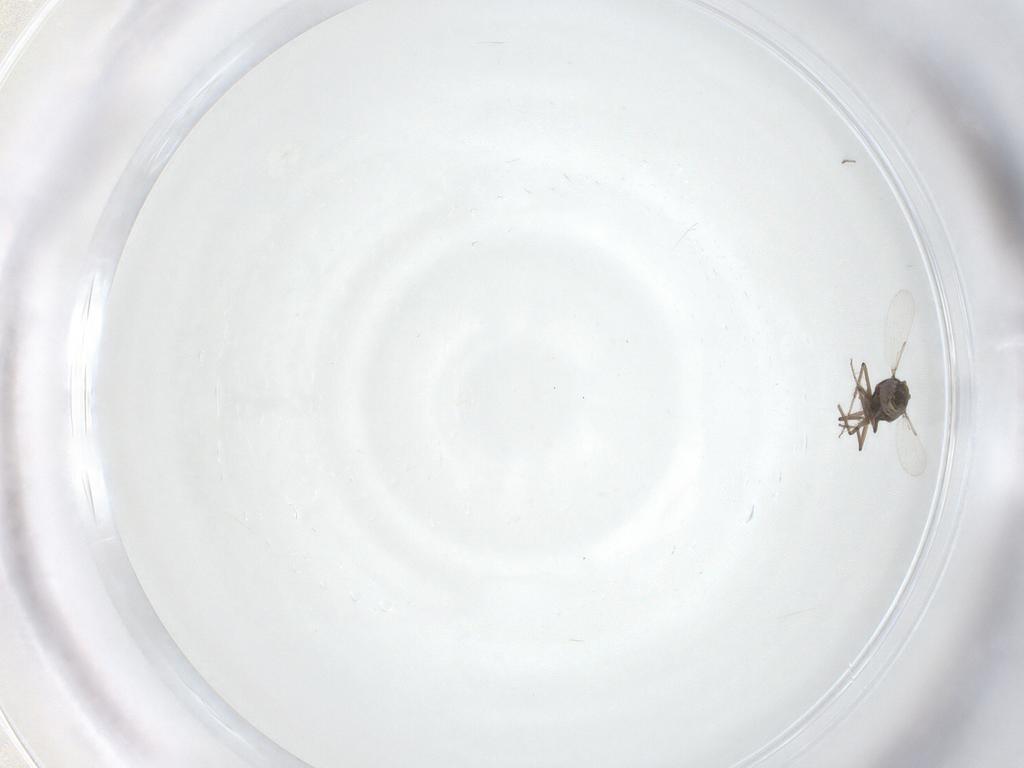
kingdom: Animalia
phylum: Arthropoda
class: Insecta
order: Diptera
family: Ceratopogonidae
